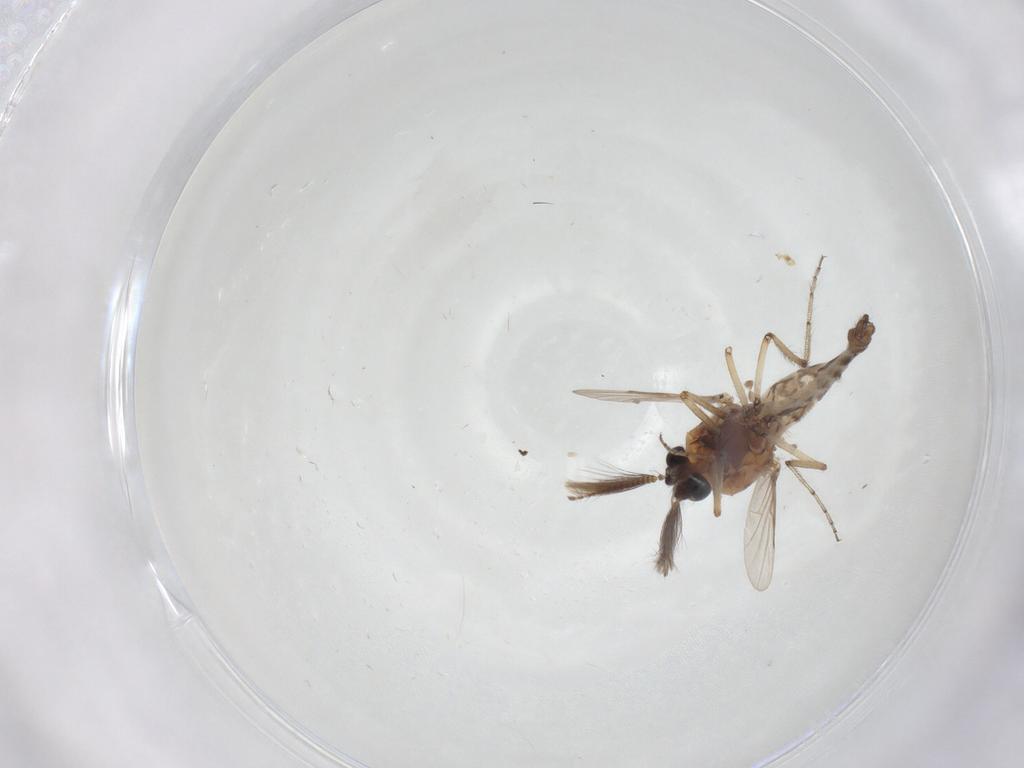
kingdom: Animalia
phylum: Arthropoda
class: Insecta
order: Diptera
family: Ceratopogonidae
